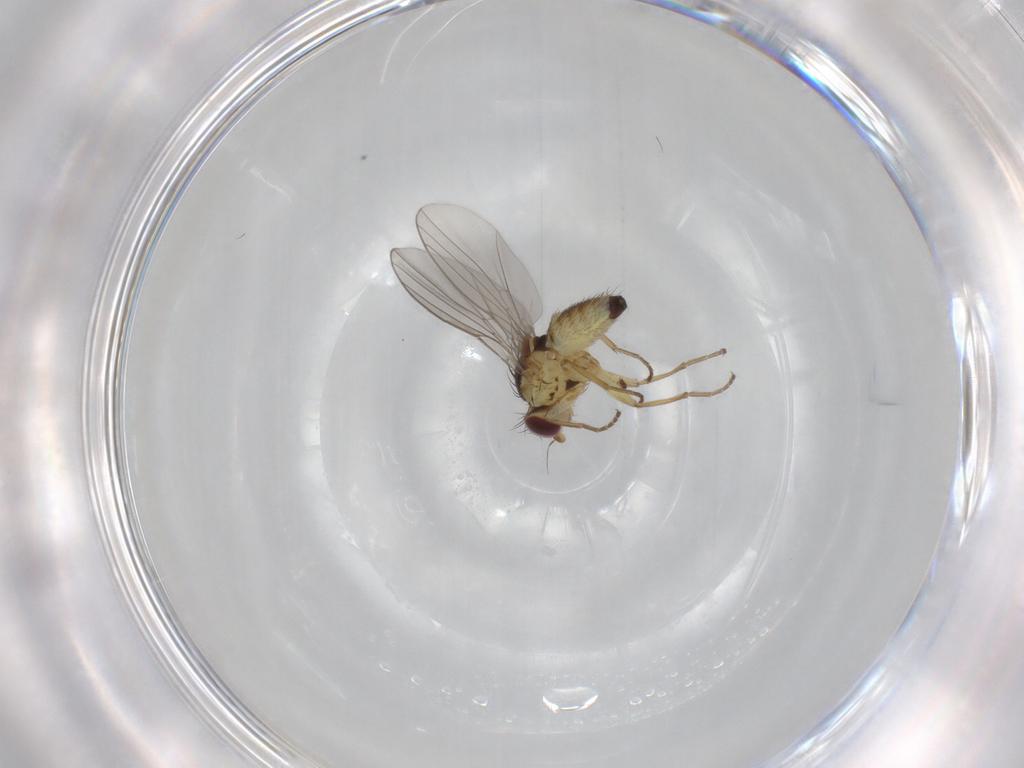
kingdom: Animalia
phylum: Arthropoda
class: Insecta
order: Diptera
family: Agromyzidae
